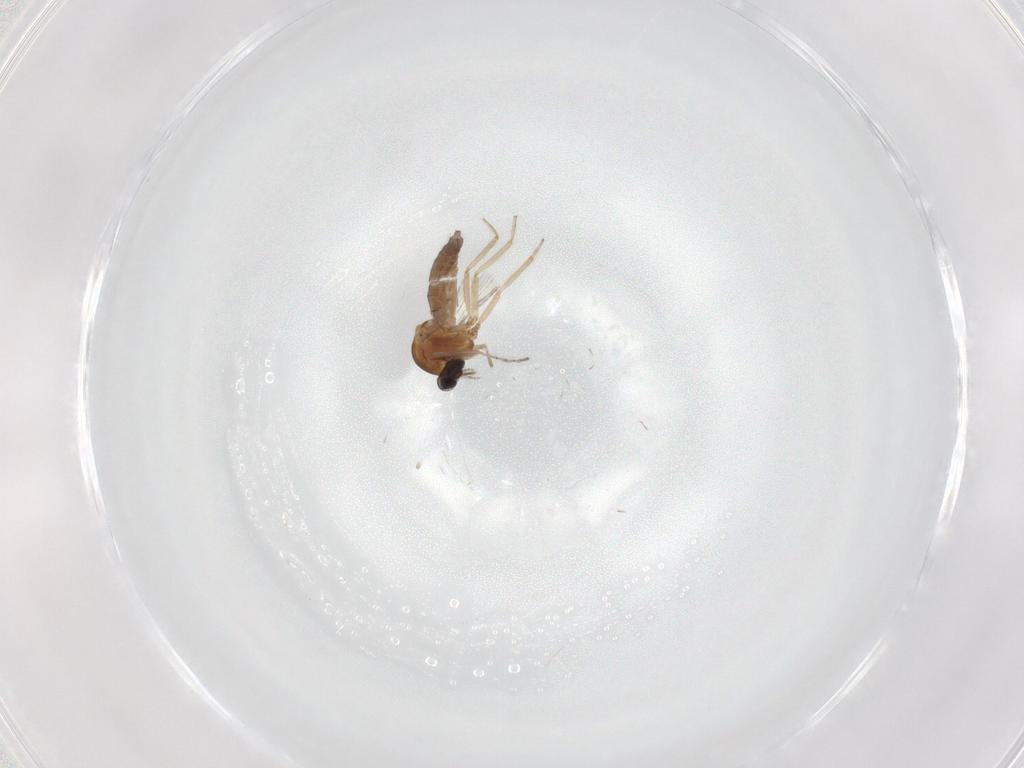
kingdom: Animalia
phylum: Arthropoda
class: Insecta
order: Diptera
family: Ceratopogonidae
